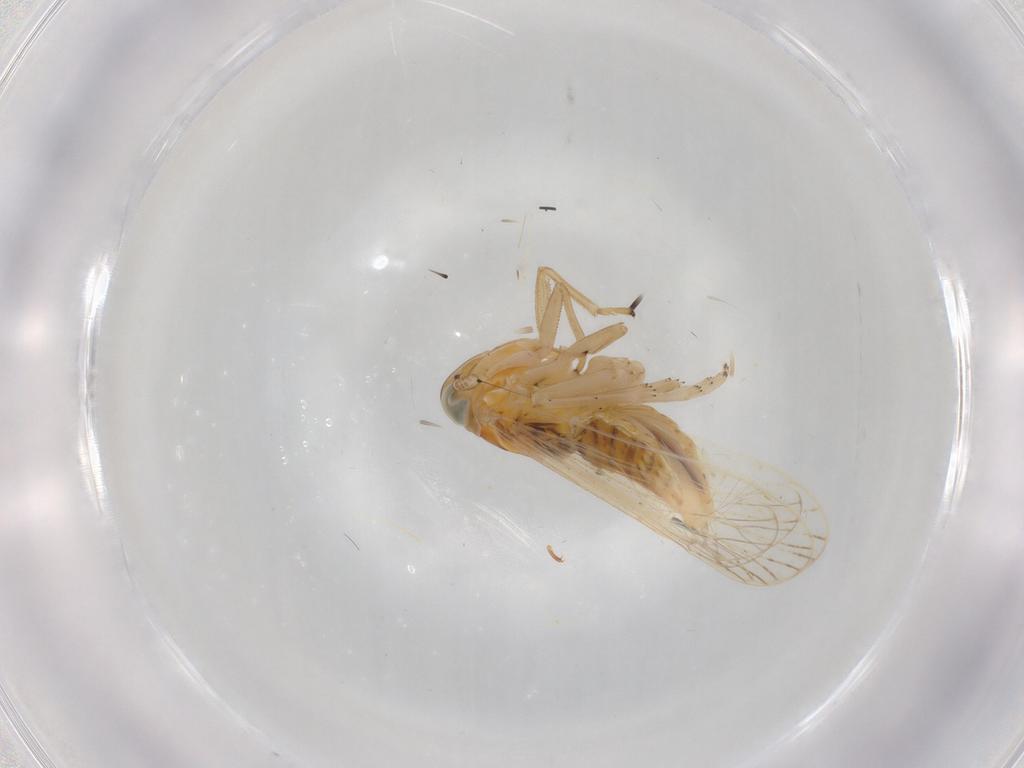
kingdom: Animalia
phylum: Arthropoda
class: Insecta
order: Hemiptera
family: Delphacidae
